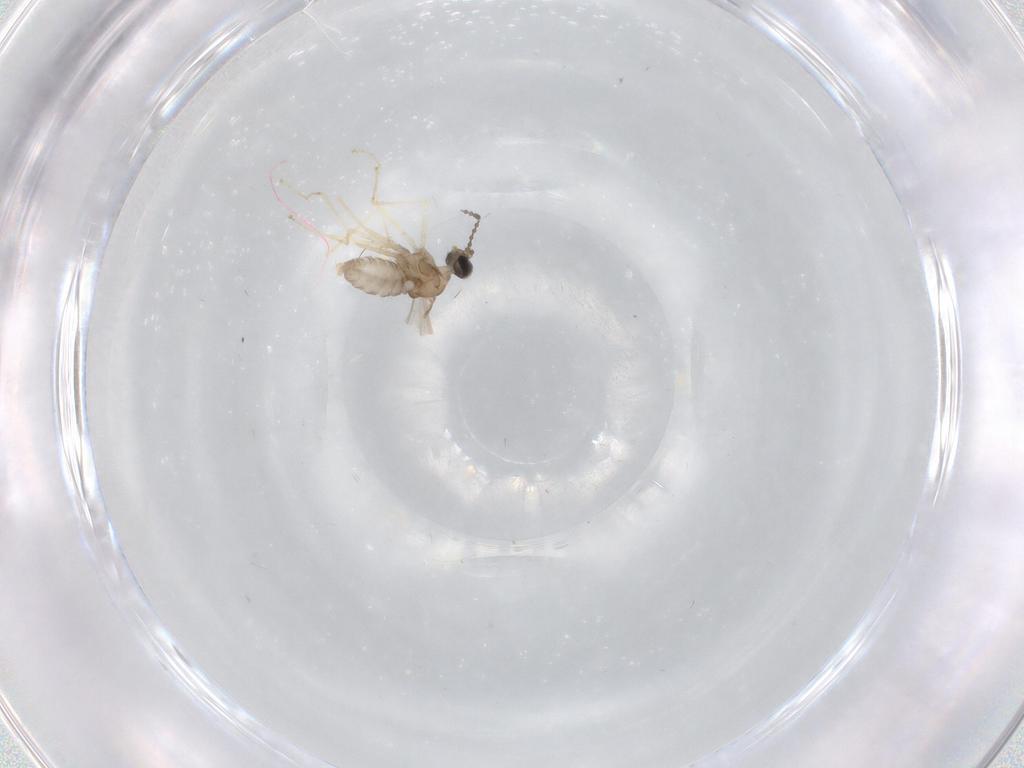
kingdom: Animalia
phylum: Arthropoda
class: Insecta
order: Diptera
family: Cecidomyiidae
